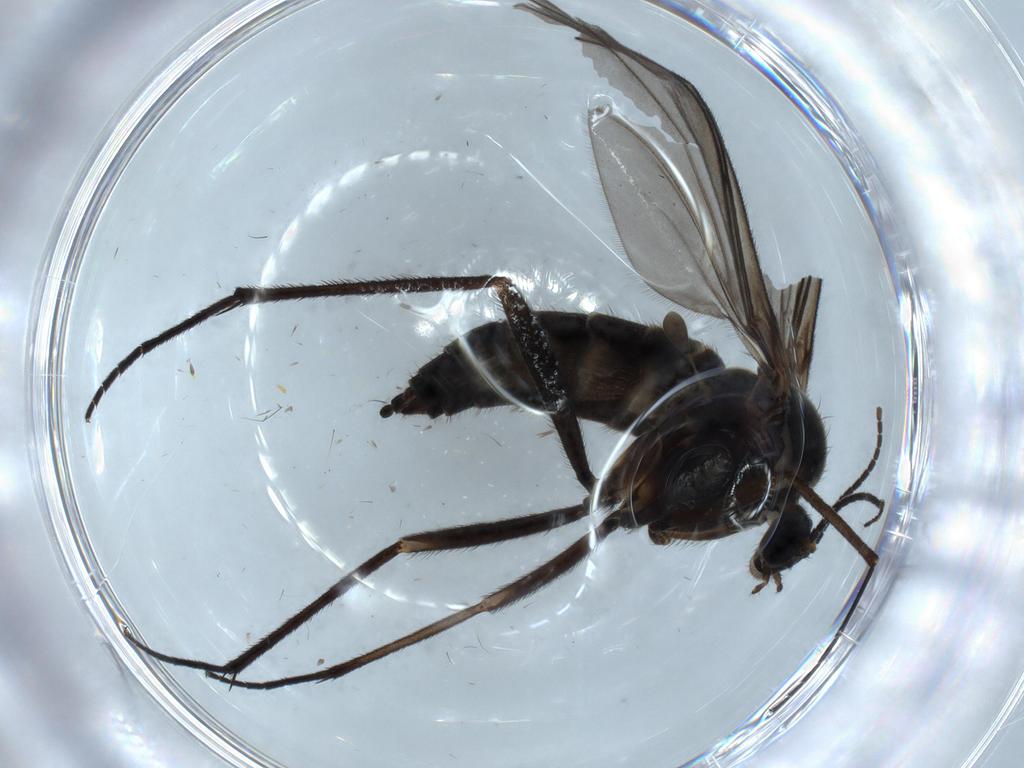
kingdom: Animalia
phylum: Arthropoda
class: Insecta
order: Diptera
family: Sciaridae
